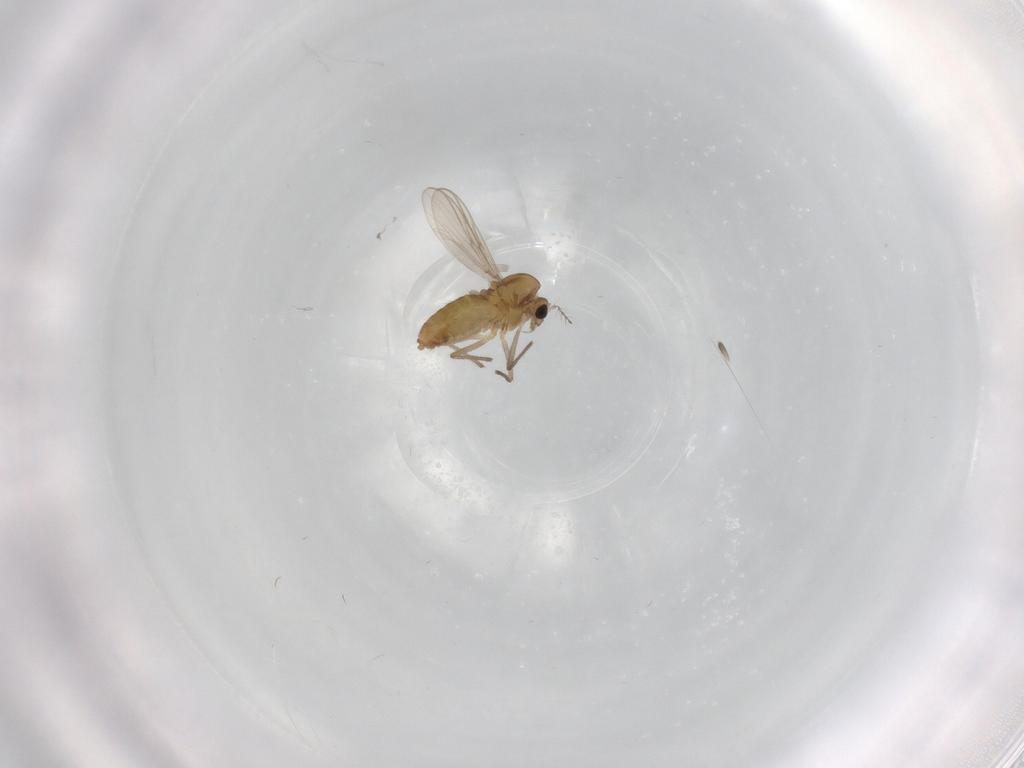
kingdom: Animalia
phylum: Arthropoda
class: Insecta
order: Diptera
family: Chironomidae
